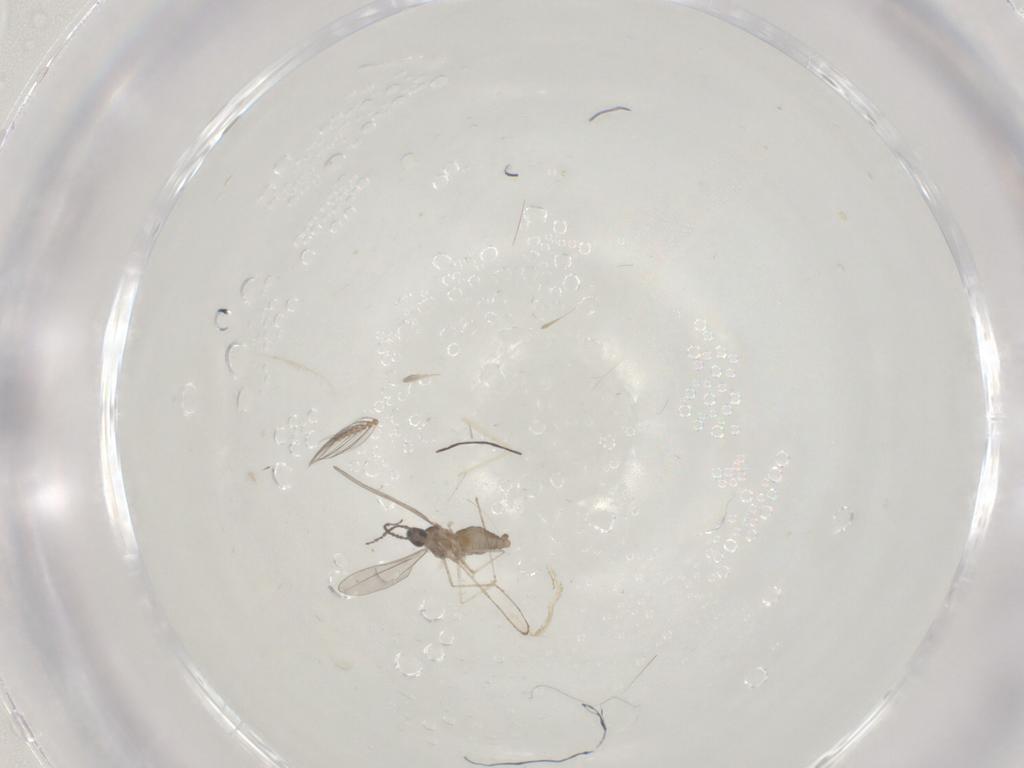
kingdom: Animalia
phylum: Arthropoda
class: Insecta
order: Diptera
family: Cecidomyiidae
